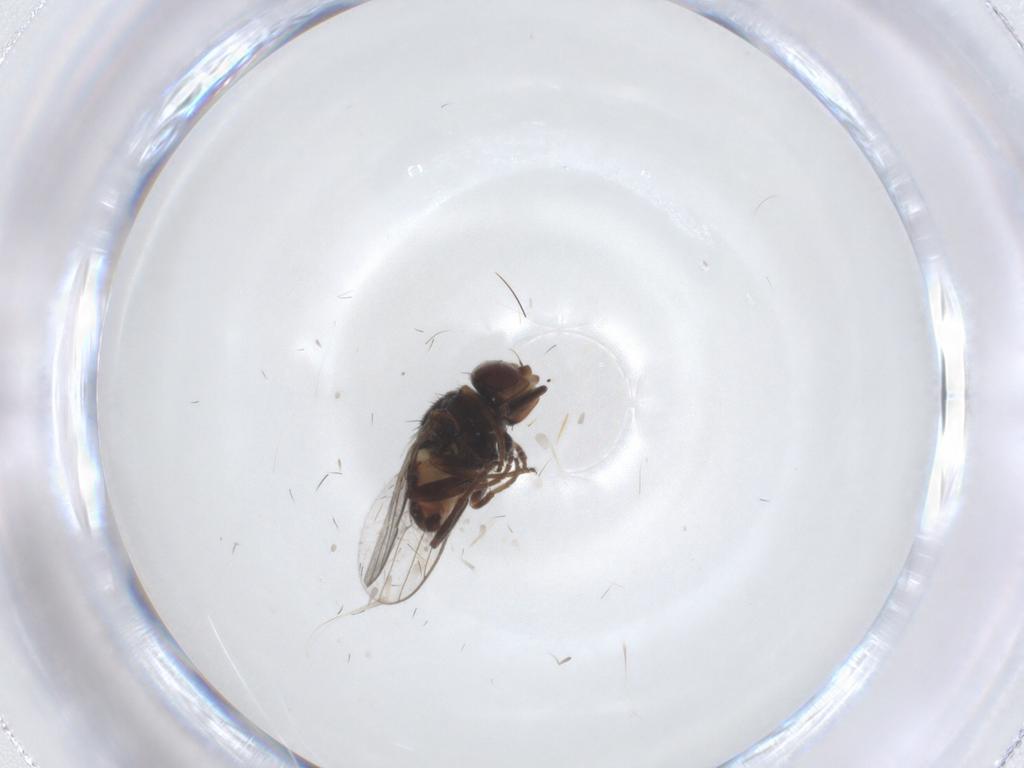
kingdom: Animalia
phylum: Arthropoda
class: Insecta
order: Diptera
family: Chloropidae
